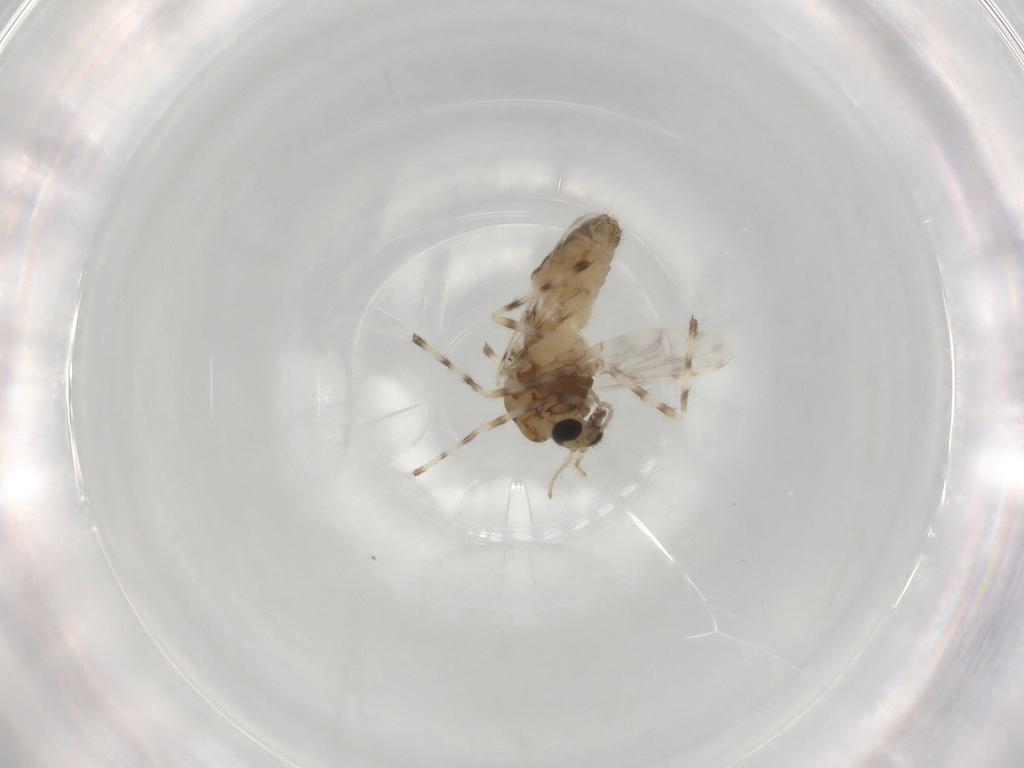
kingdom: Animalia
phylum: Arthropoda
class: Insecta
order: Diptera
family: Chironomidae
